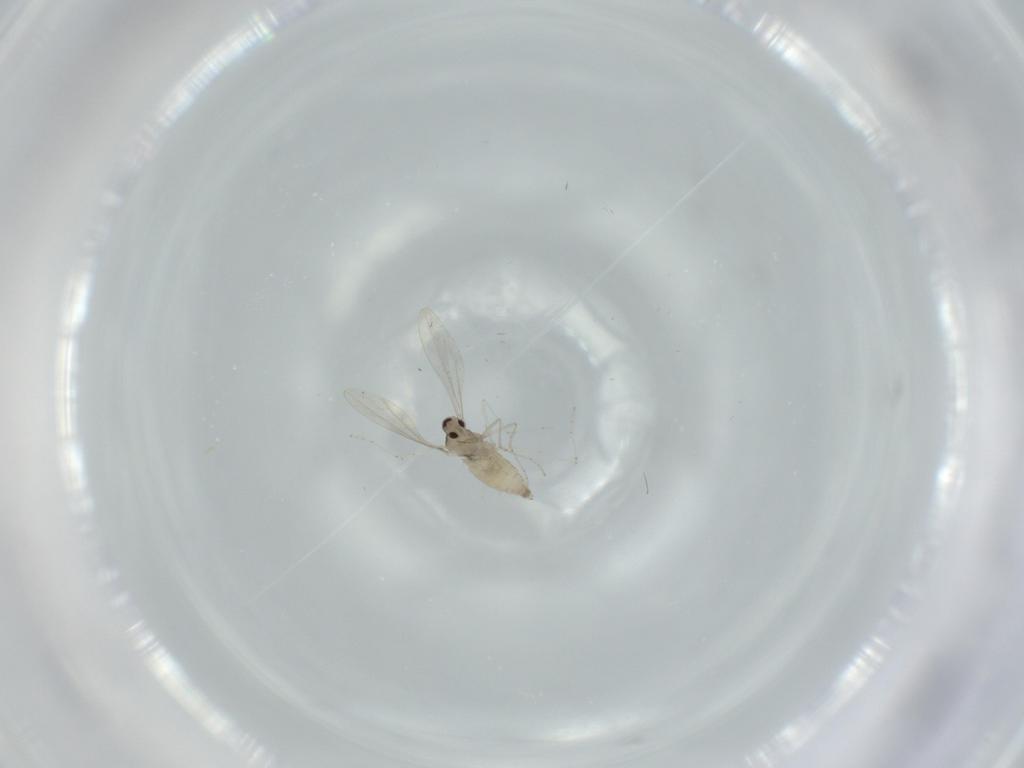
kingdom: Animalia
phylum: Arthropoda
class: Insecta
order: Diptera
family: Cecidomyiidae
